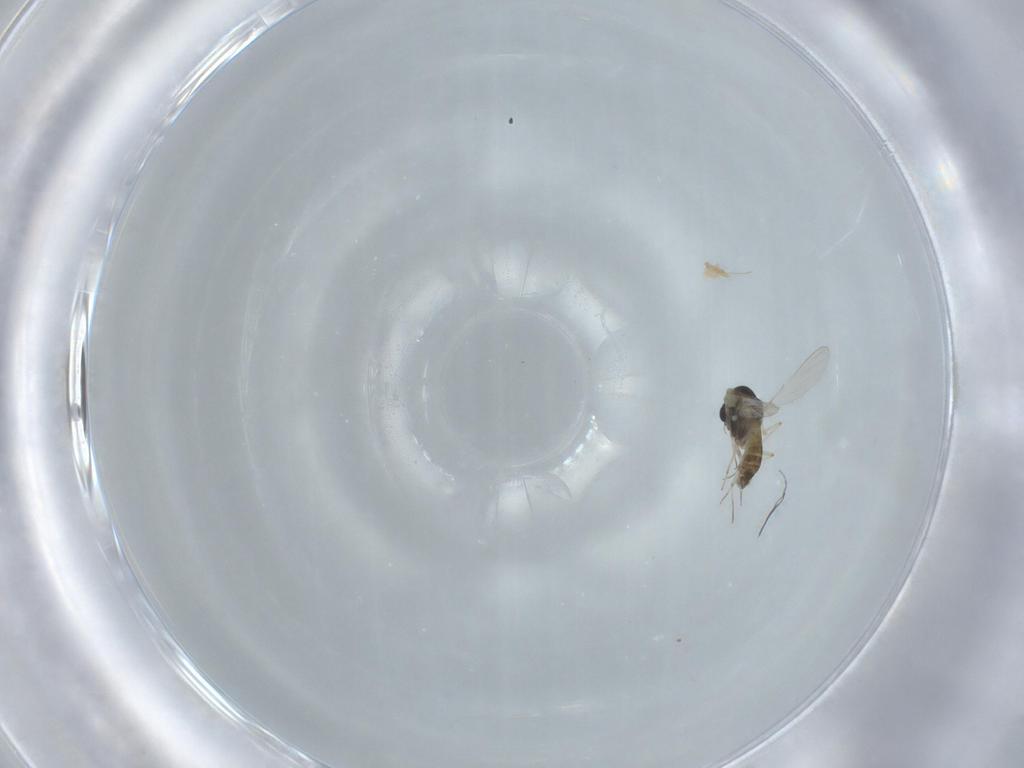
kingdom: Animalia
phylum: Arthropoda
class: Insecta
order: Diptera
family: Chironomidae
